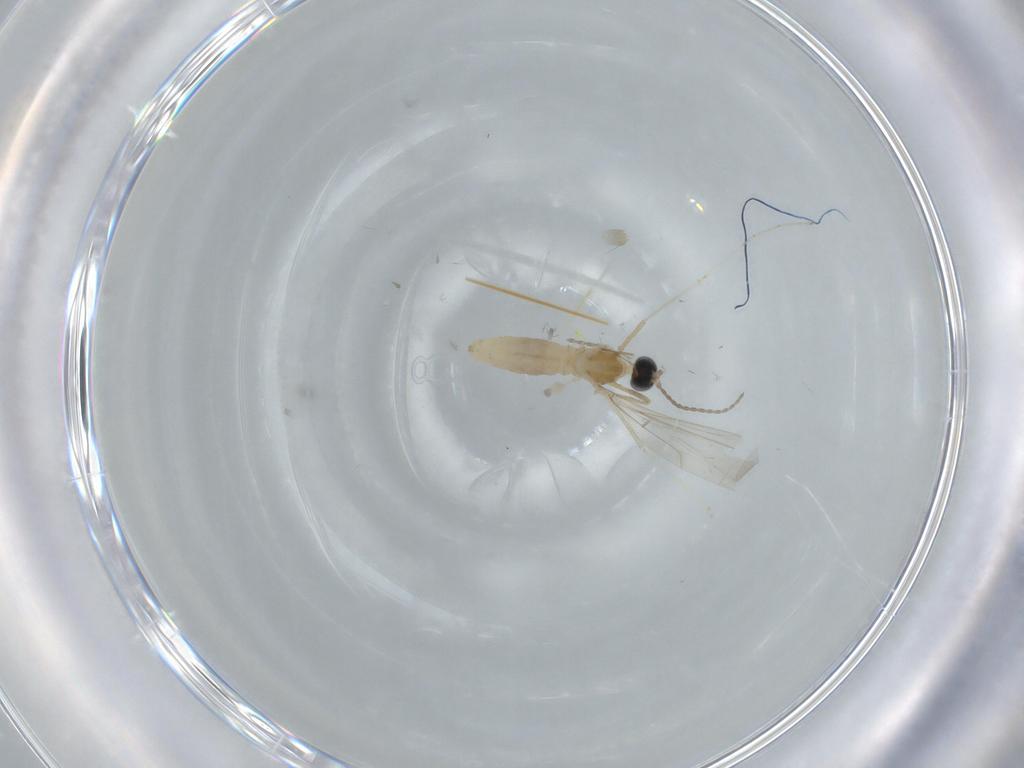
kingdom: Animalia
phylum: Arthropoda
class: Insecta
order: Diptera
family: Cecidomyiidae
